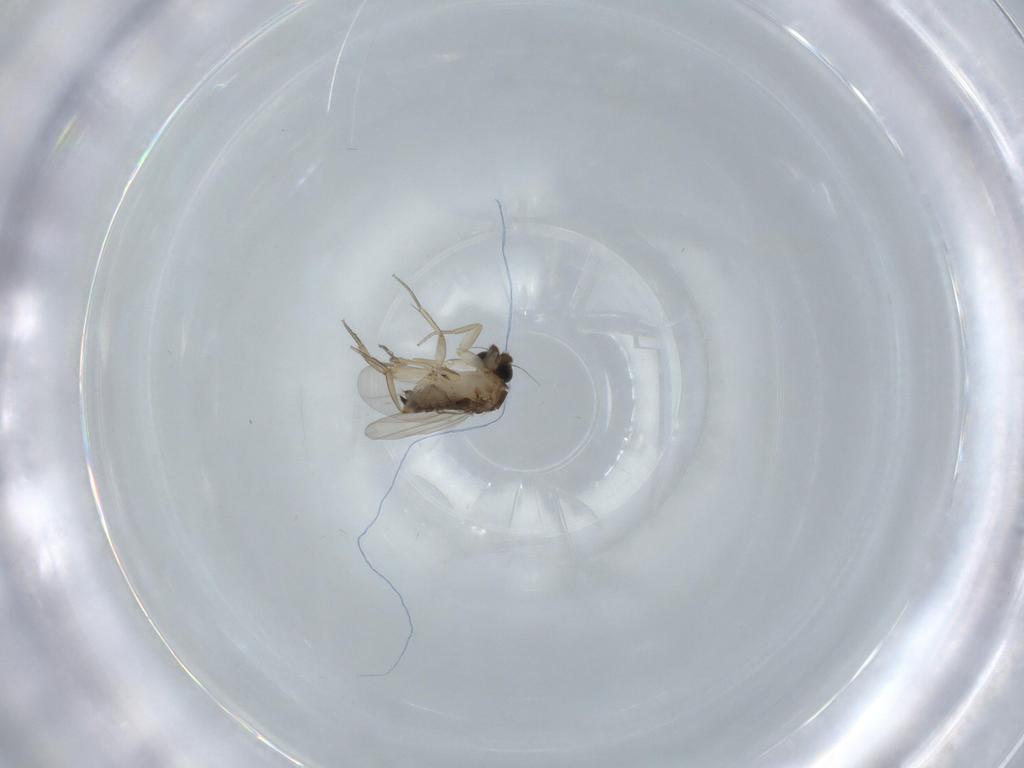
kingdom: Animalia
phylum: Arthropoda
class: Insecta
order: Diptera
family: Phoridae
